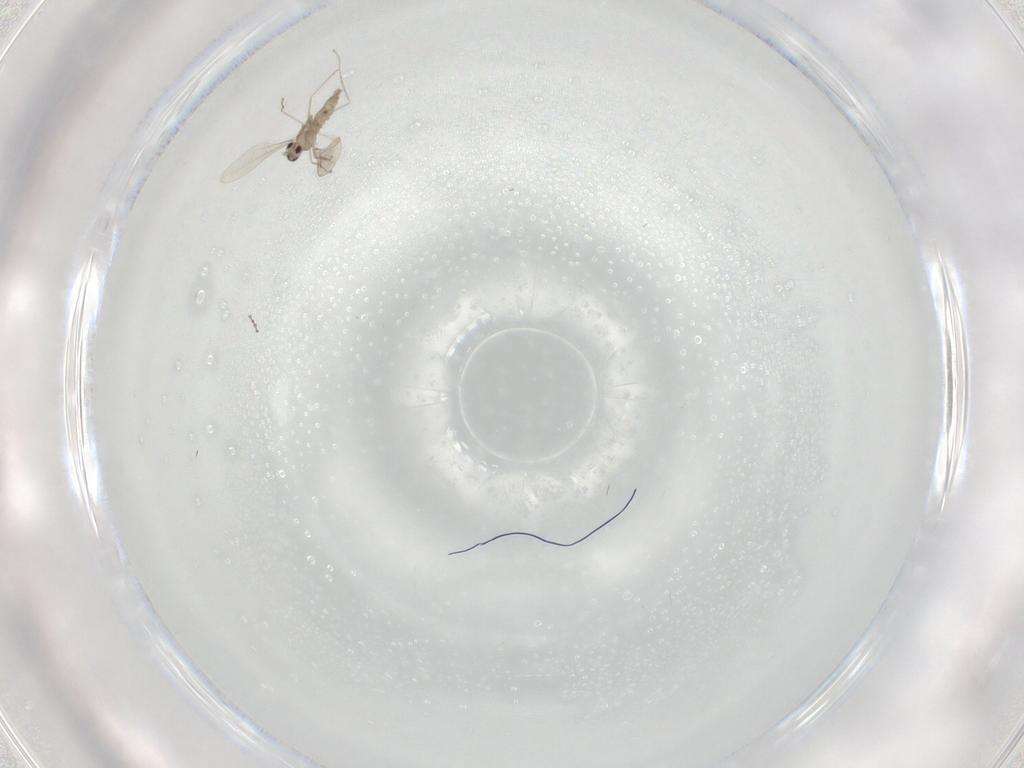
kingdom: Animalia
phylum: Arthropoda
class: Insecta
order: Diptera
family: Cecidomyiidae
